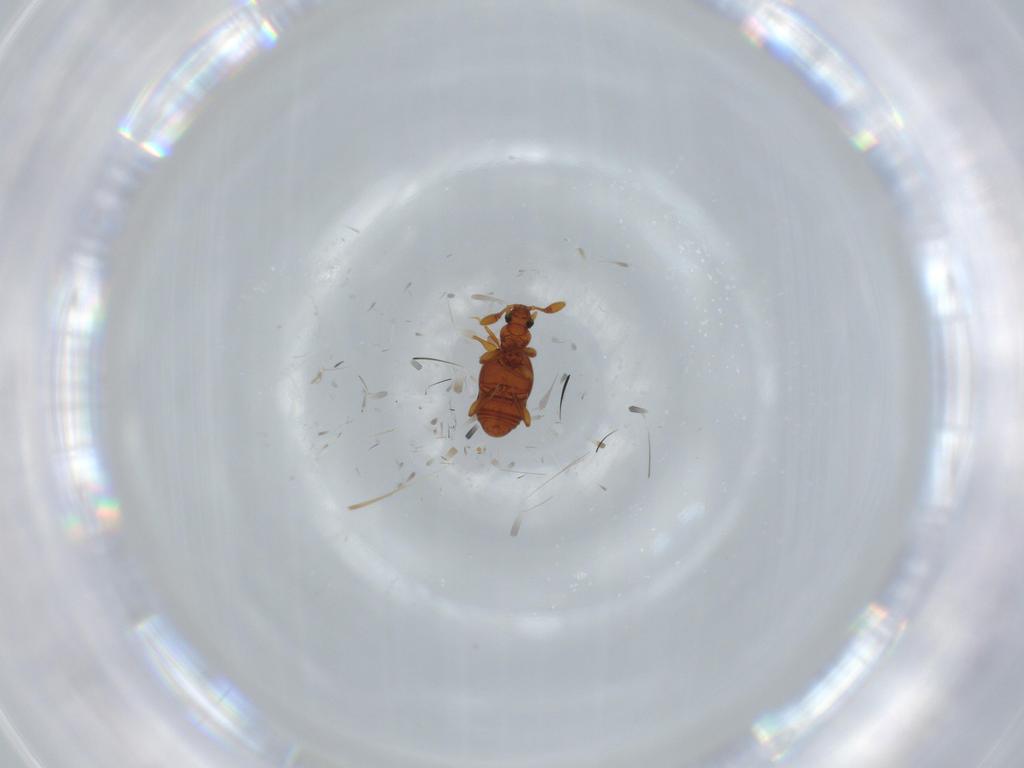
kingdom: Animalia
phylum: Arthropoda
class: Insecta
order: Coleoptera
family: Staphylinidae
